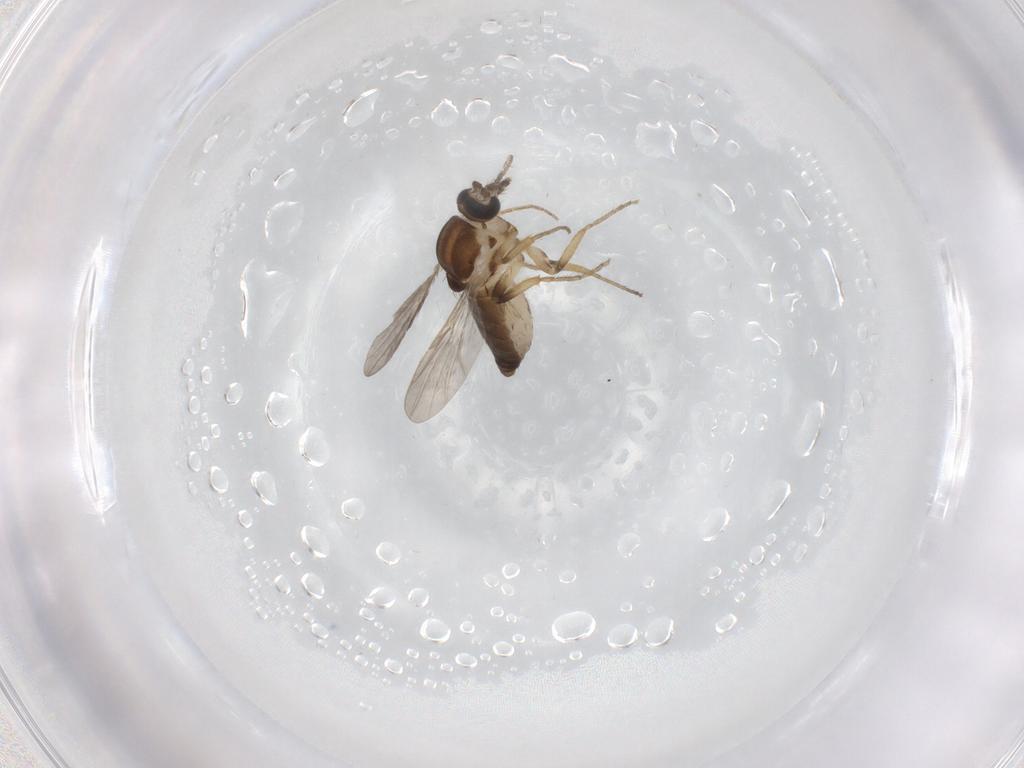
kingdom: Animalia
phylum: Arthropoda
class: Insecta
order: Diptera
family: Ceratopogonidae
